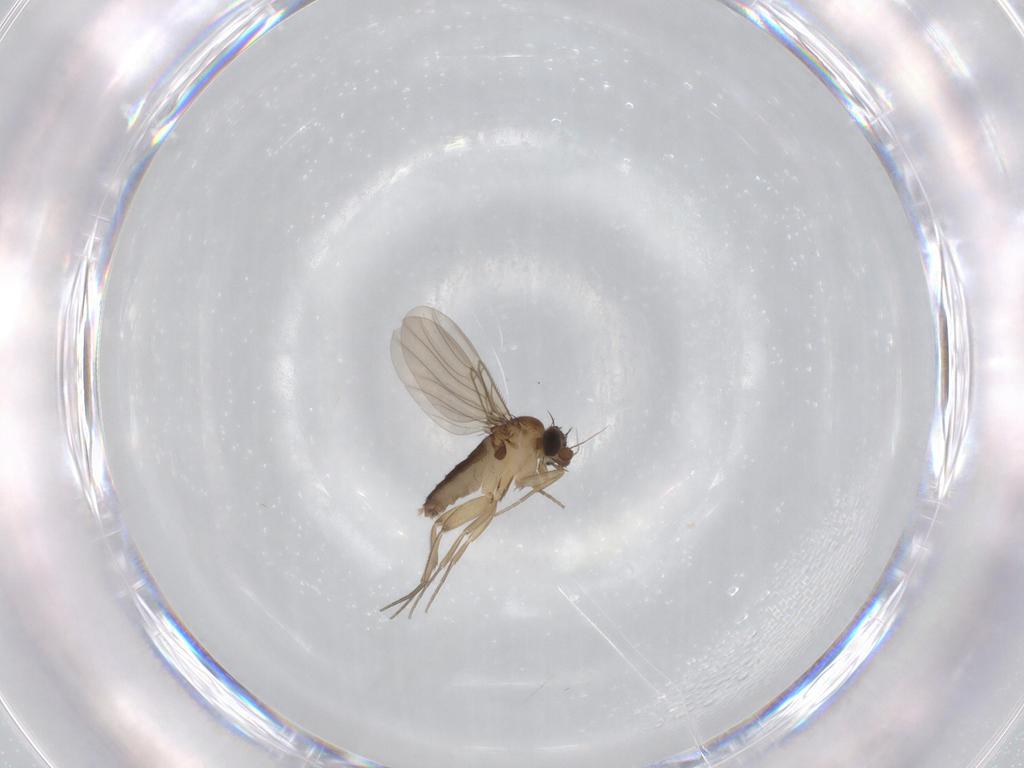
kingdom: Animalia
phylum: Arthropoda
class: Insecta
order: Diptera
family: Phoridae
